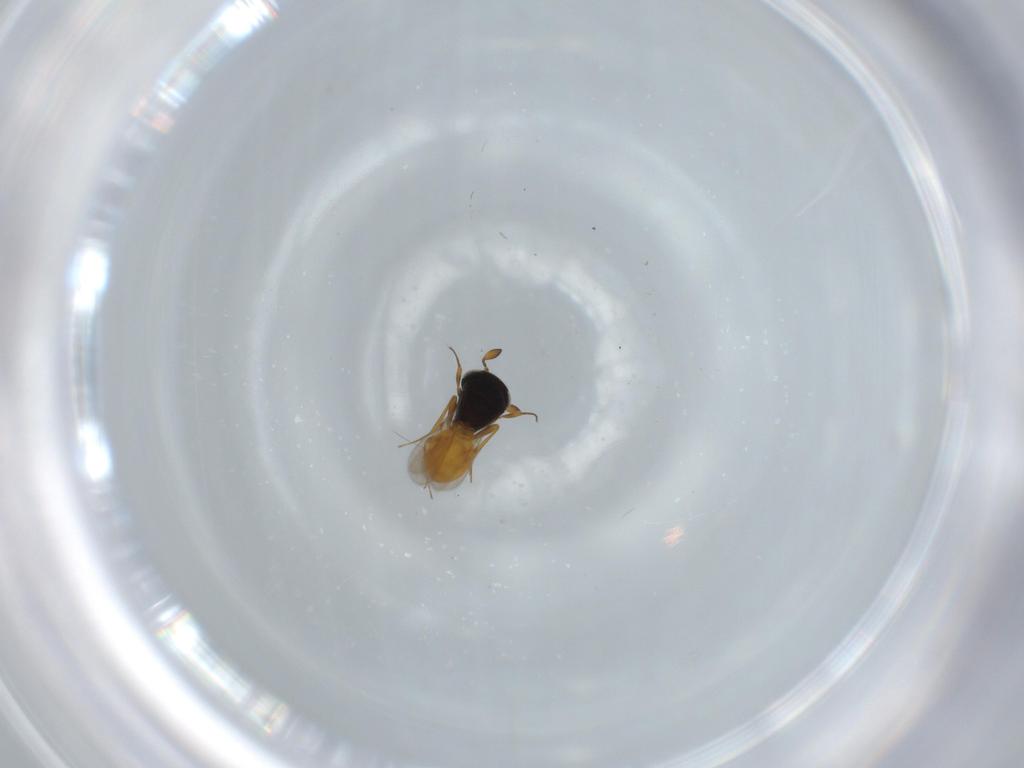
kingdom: Animalia
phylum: Arthropoda
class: Insecta
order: Hymenoptera
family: Scelionidae
